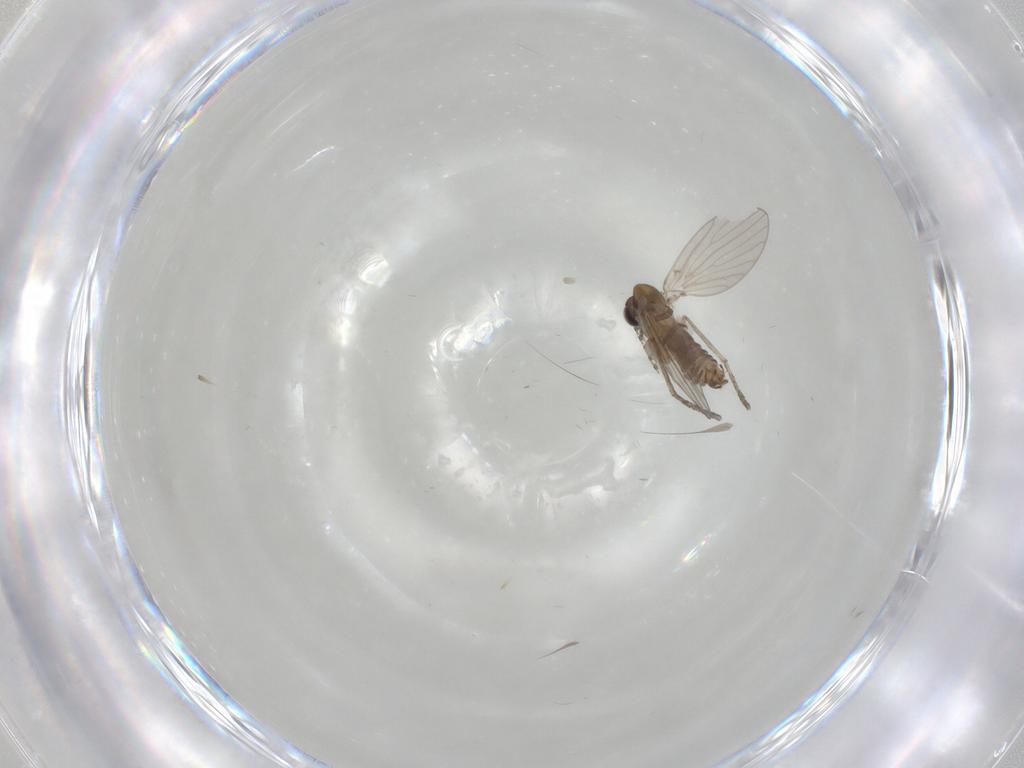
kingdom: Animalia
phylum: Arthropoda
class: Insecta
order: Diptera
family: Psychodidae
